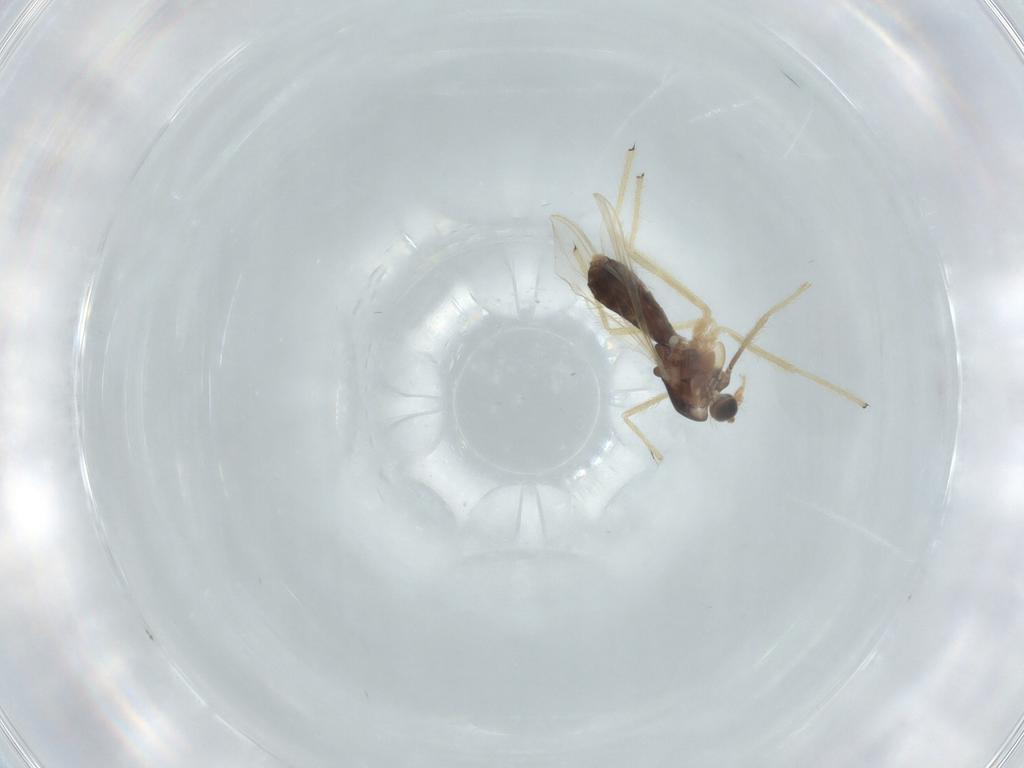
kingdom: Animalia
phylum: Arthropoda
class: Insecta
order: Diptera
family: Chironomidae
